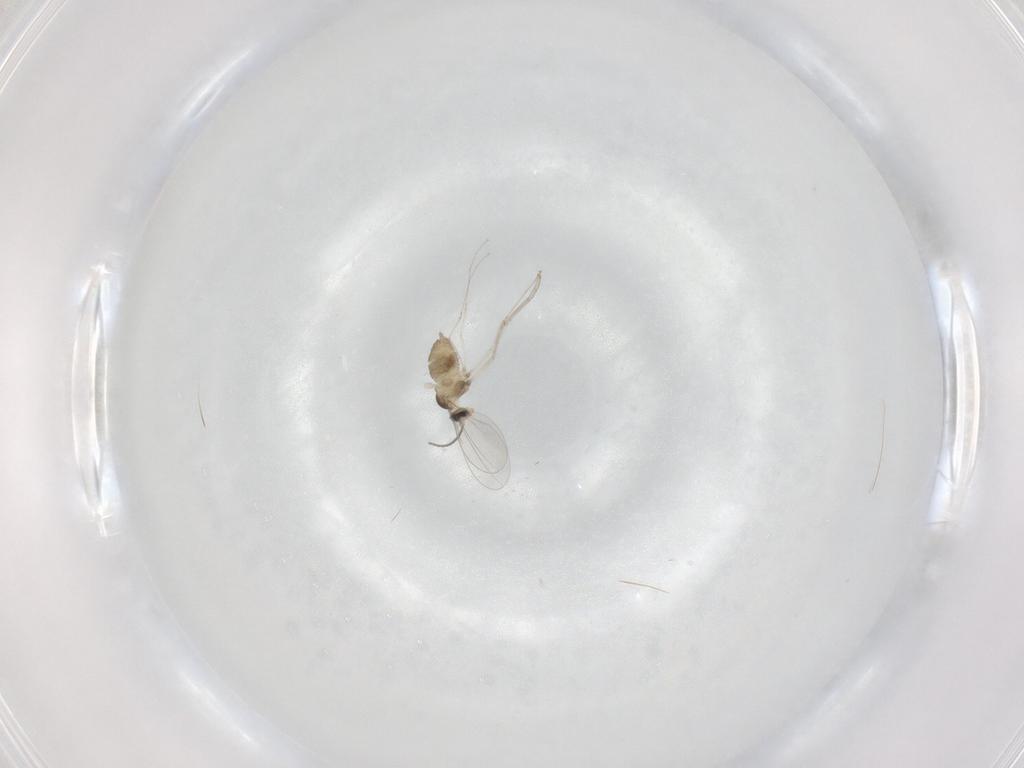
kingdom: Animalia
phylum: Arthropoda
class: Insecta
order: Diptera
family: Cecidomyiidae
